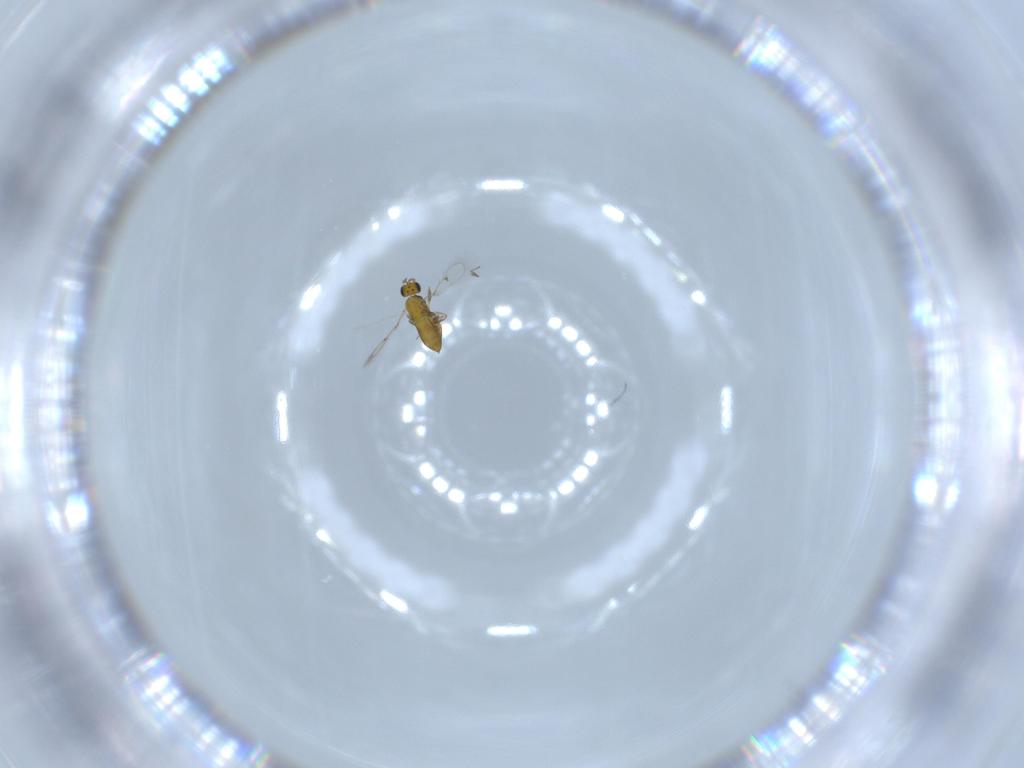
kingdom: Animalia
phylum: Arthropoda
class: Insecta
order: Hymenoptera
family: Trichogrammatidae
